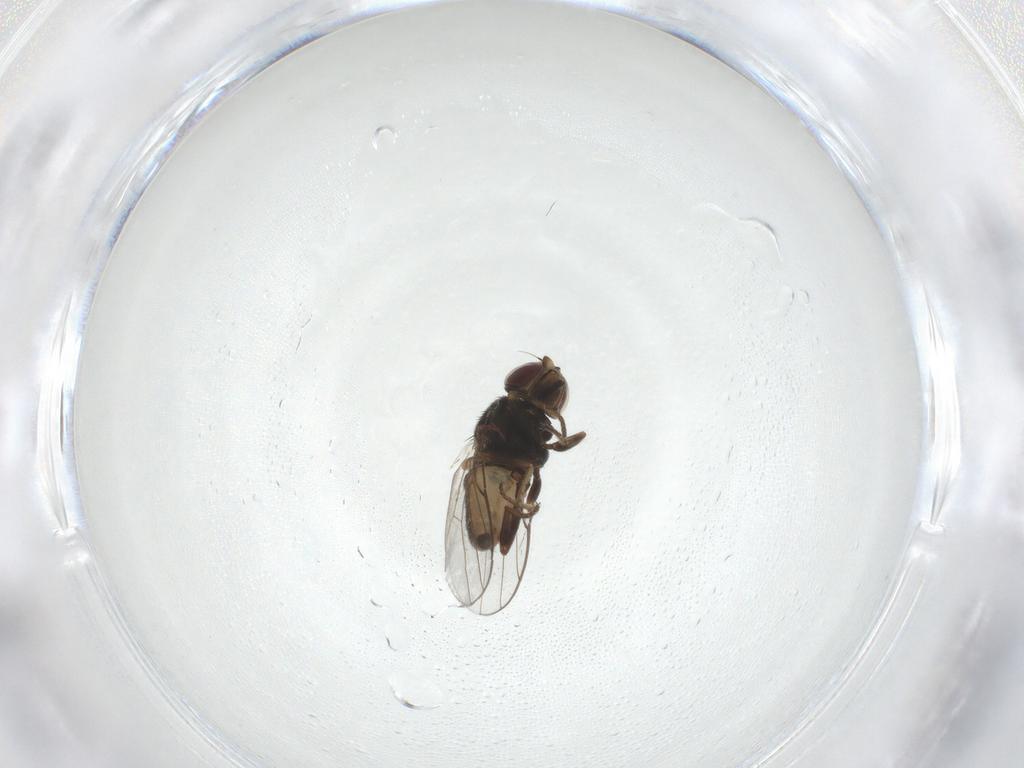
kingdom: Animalia
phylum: Arthropoda
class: Insecta
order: Diptera
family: Chloropidae
